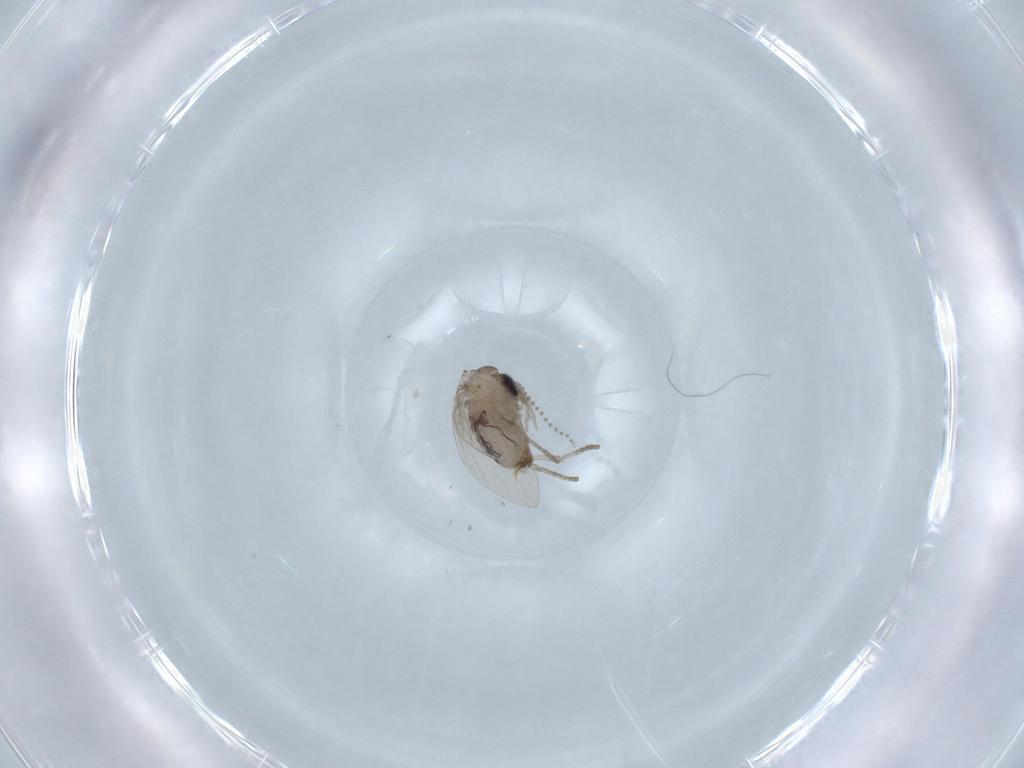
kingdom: Animalia
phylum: Arthropoda
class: Insecta
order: Diptera
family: Psychodidae
